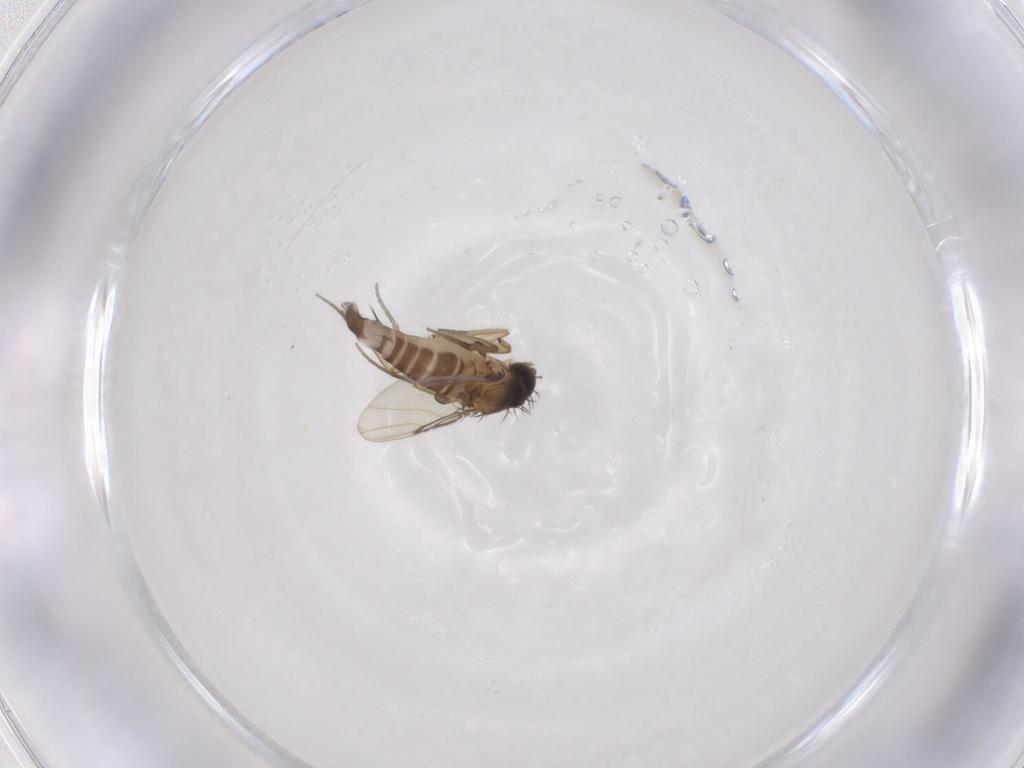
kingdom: Animalia
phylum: Arthropoda
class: Insecta
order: Diptera
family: Phoridae
